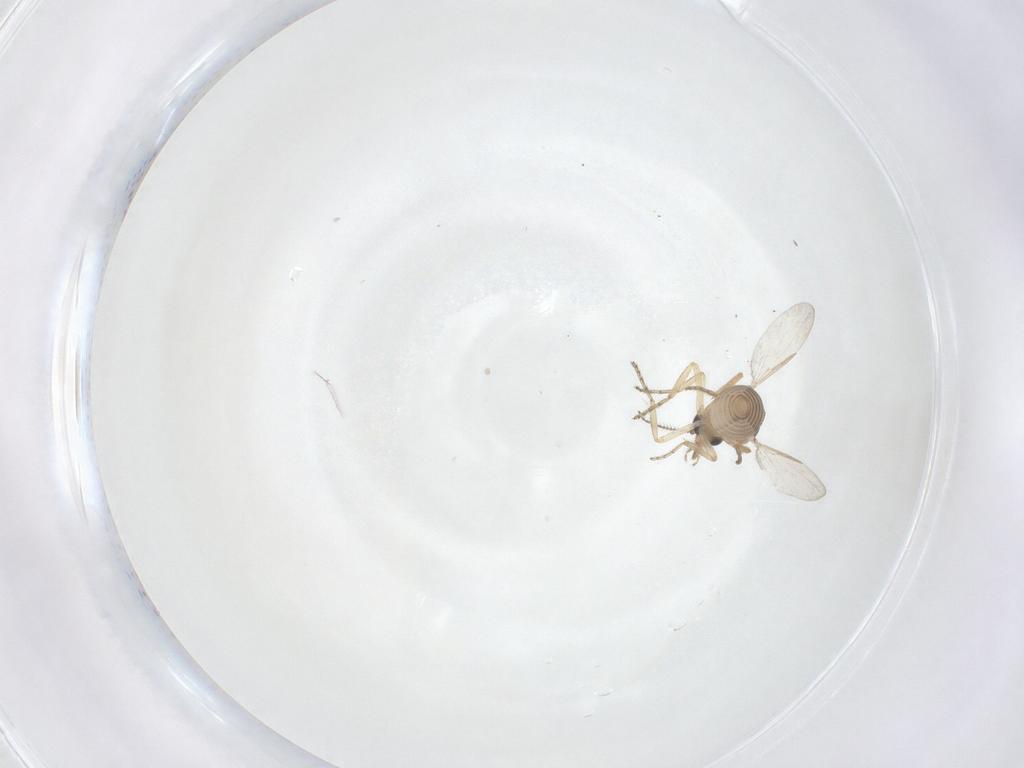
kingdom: Animalia
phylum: Arthropoda
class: Insecta
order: Diptera
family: Ceratopogonidae
